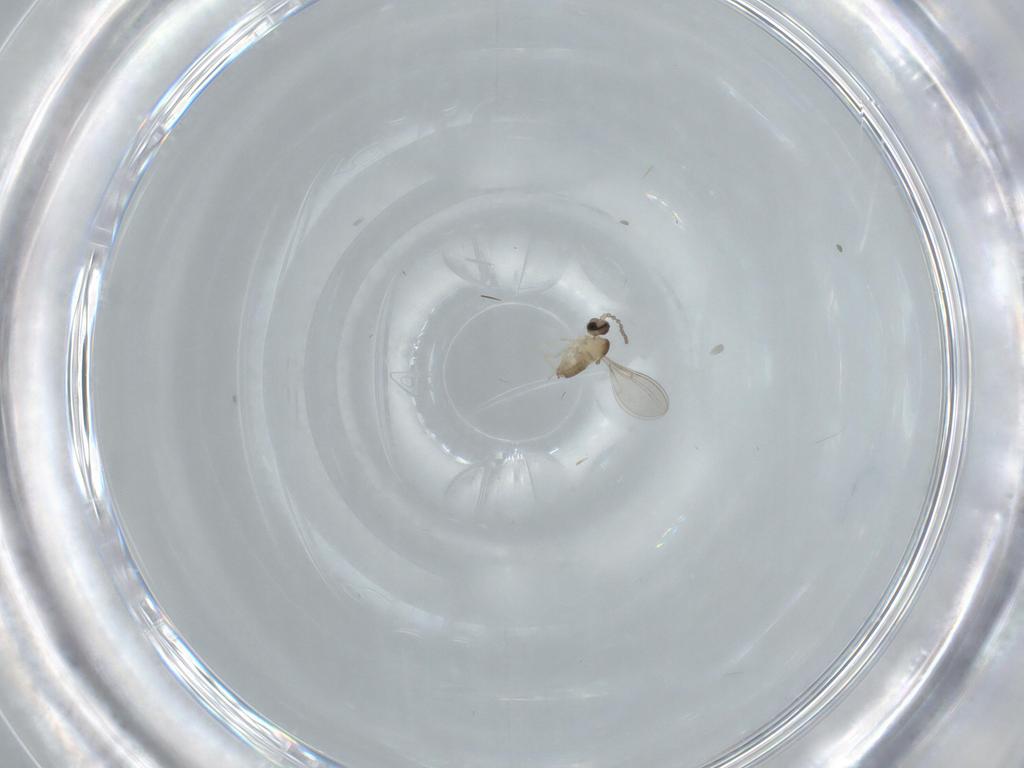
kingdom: Animalia
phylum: Arthropoda
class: Insecta
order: Diptera
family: Cecidomyiidae
